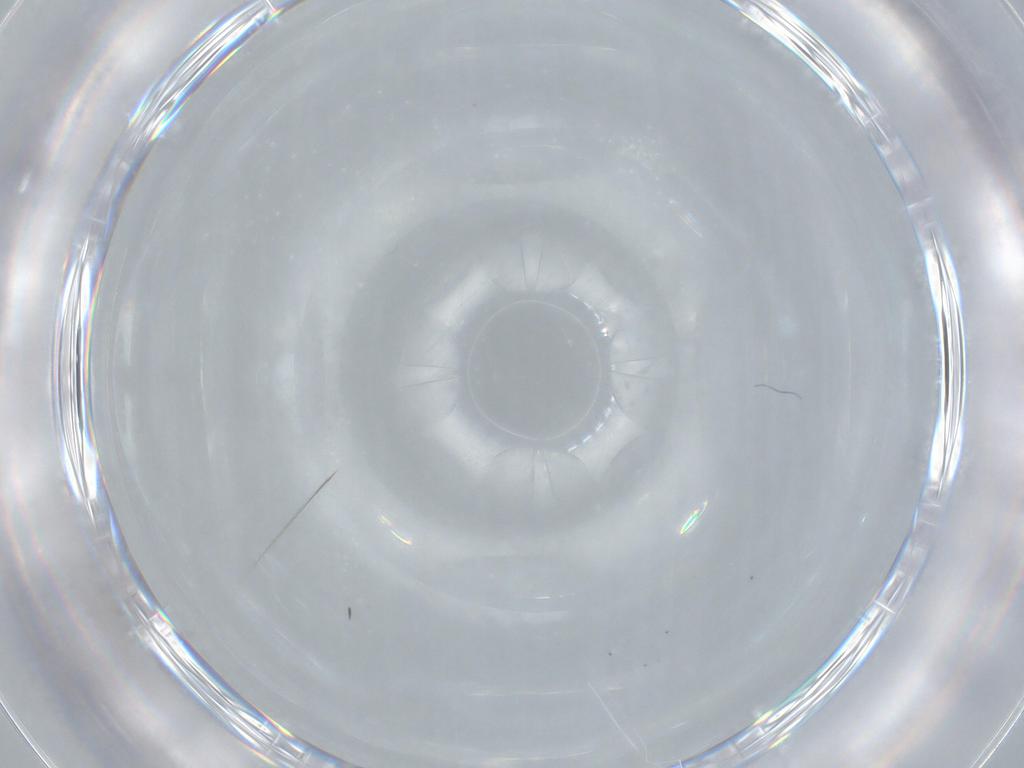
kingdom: Animalia
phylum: Arthropoda
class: Insecta
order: Diptera
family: Sciaridae
